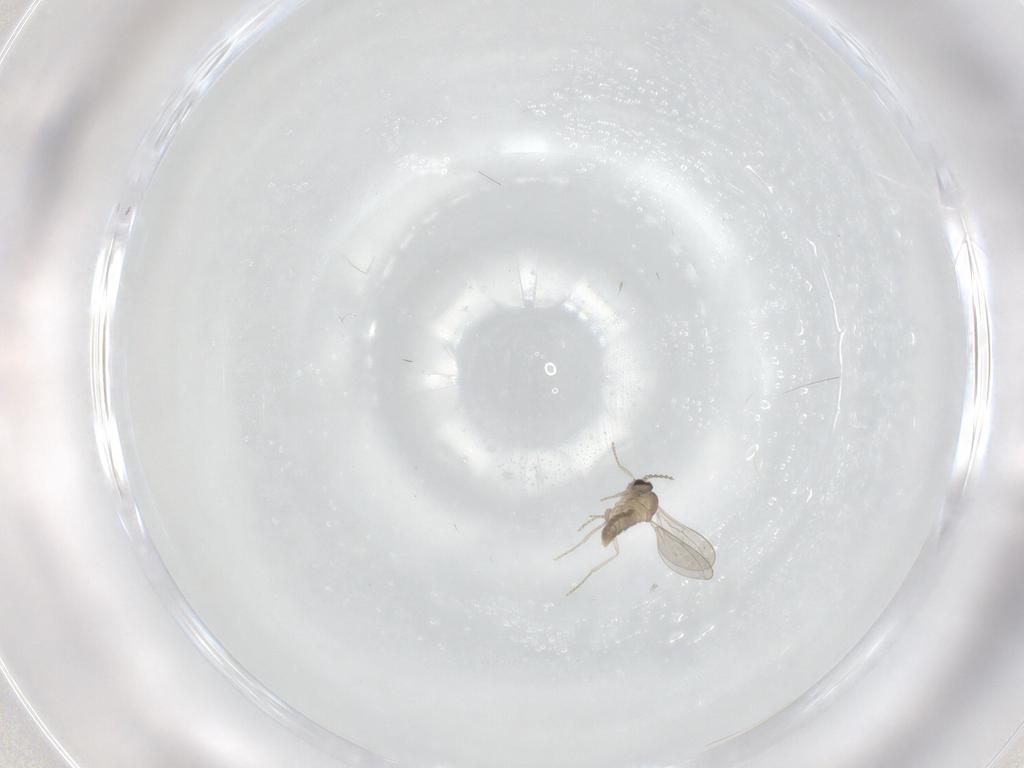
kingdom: Animalia
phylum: Arthropoda
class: Insecta
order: Diptera
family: Cecidomyiidae
